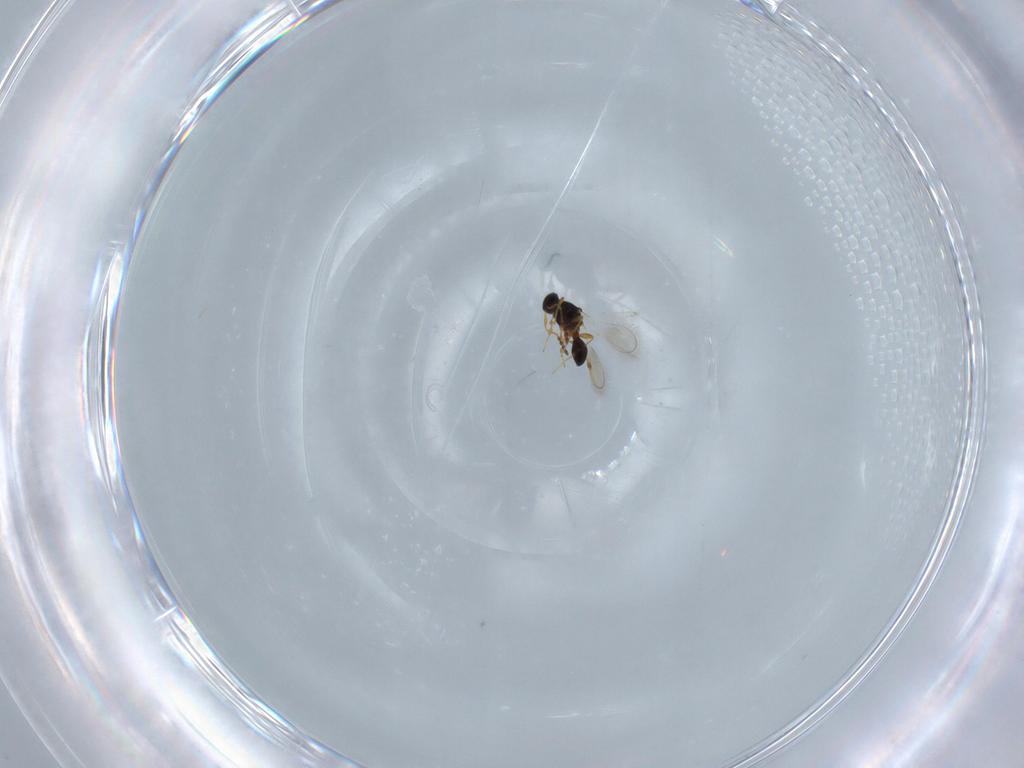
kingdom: Animalia
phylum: Arthropoda
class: Insecta
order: Hymenoptera
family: Platygastridae
